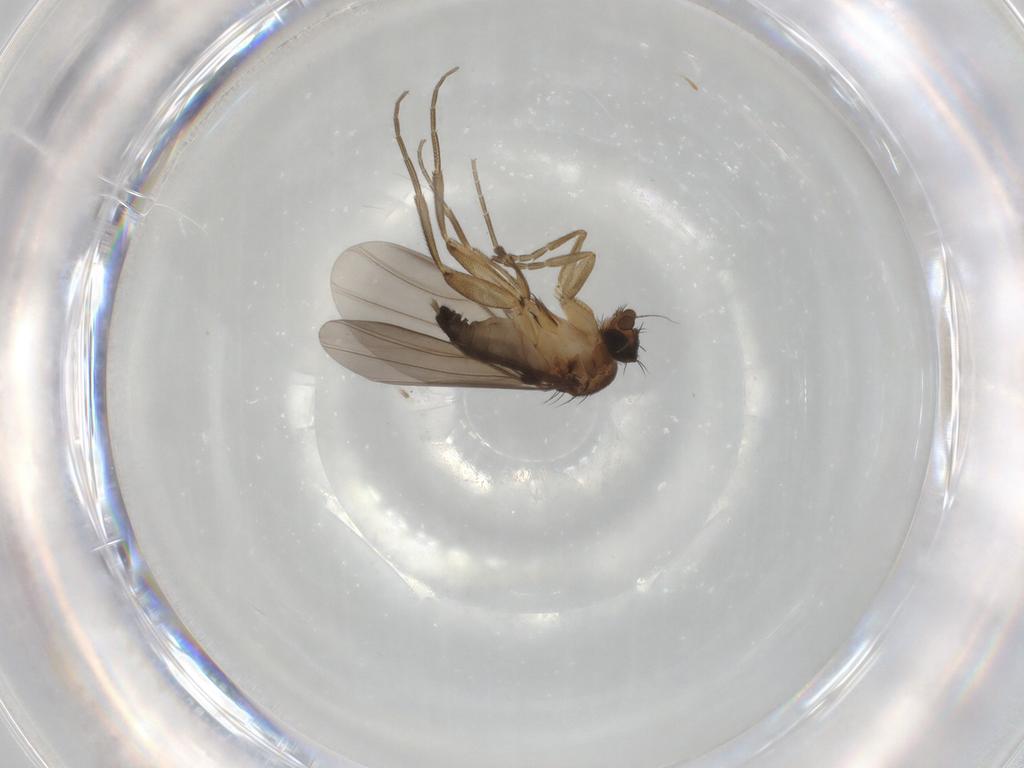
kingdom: Animalia
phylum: Arthropoda
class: Insecta
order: Diptera
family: Phoridae
